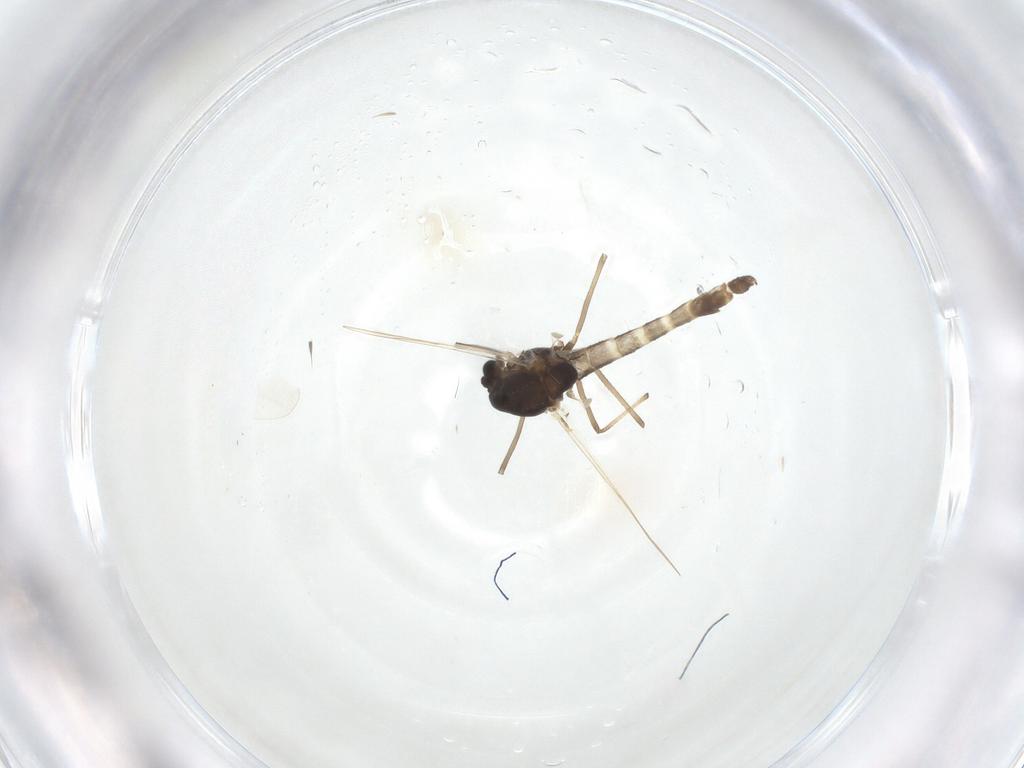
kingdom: Animalia
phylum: Arthropoda
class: Insecta
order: Diptera
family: Chironomidae
